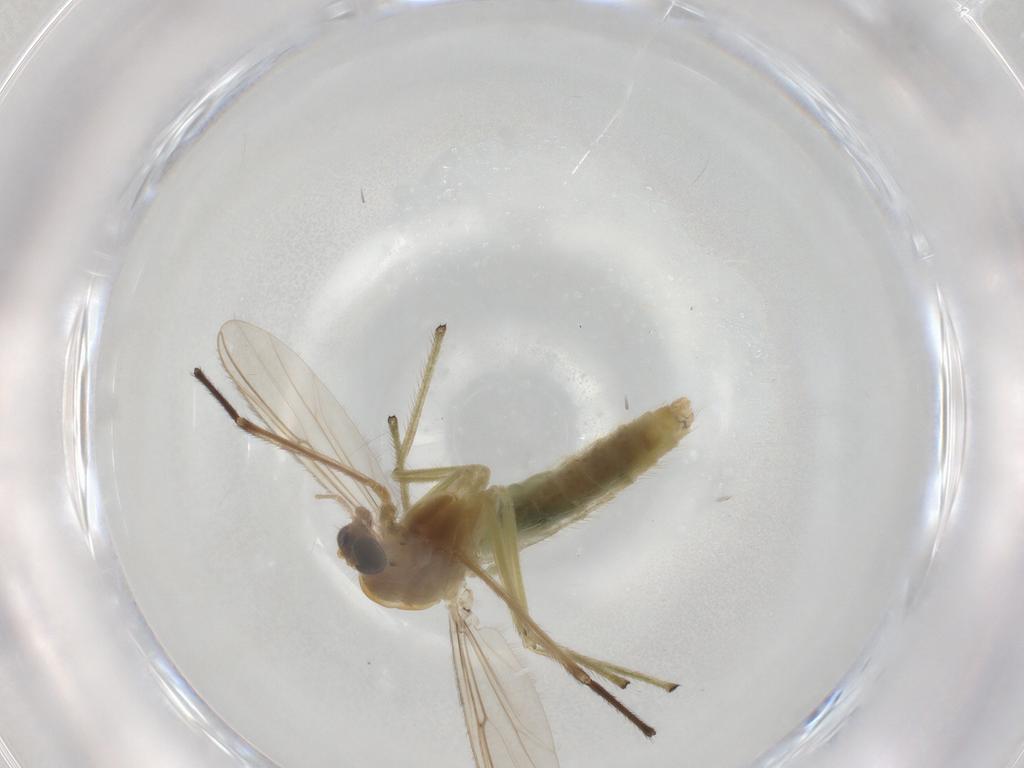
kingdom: Animalia
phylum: Arthropoda
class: Insecta
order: Diptera
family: Chironomidae
